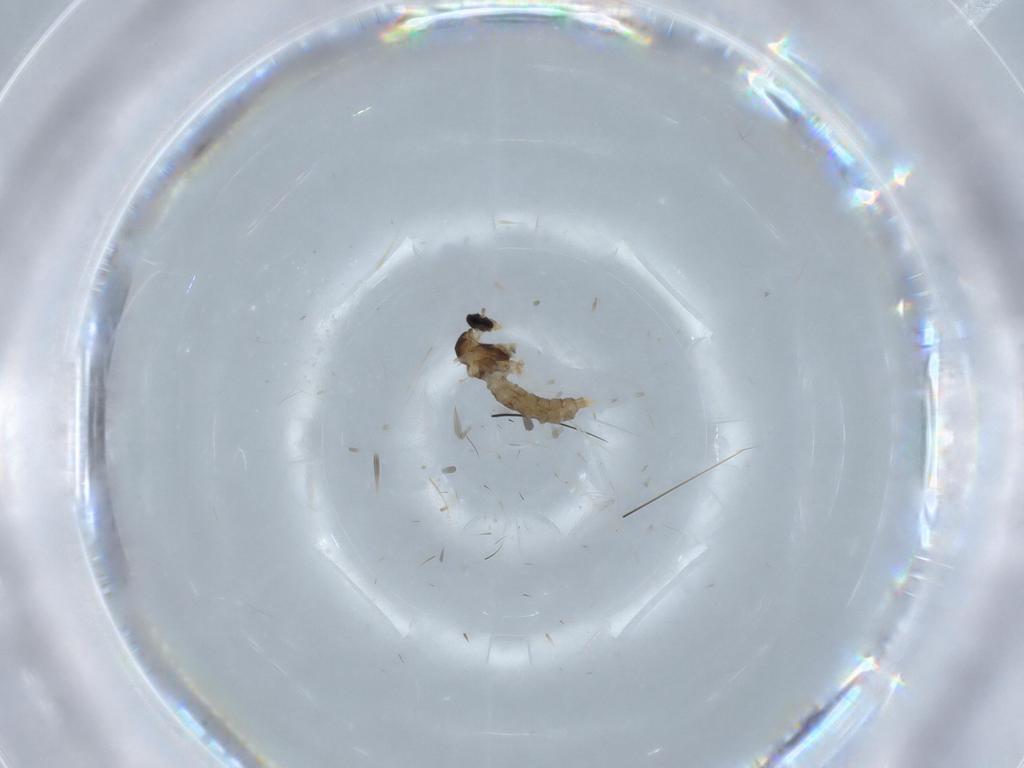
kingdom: Animalia
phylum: Arthropoda
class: Insecta
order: Diptera
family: Cecidomyiidae
